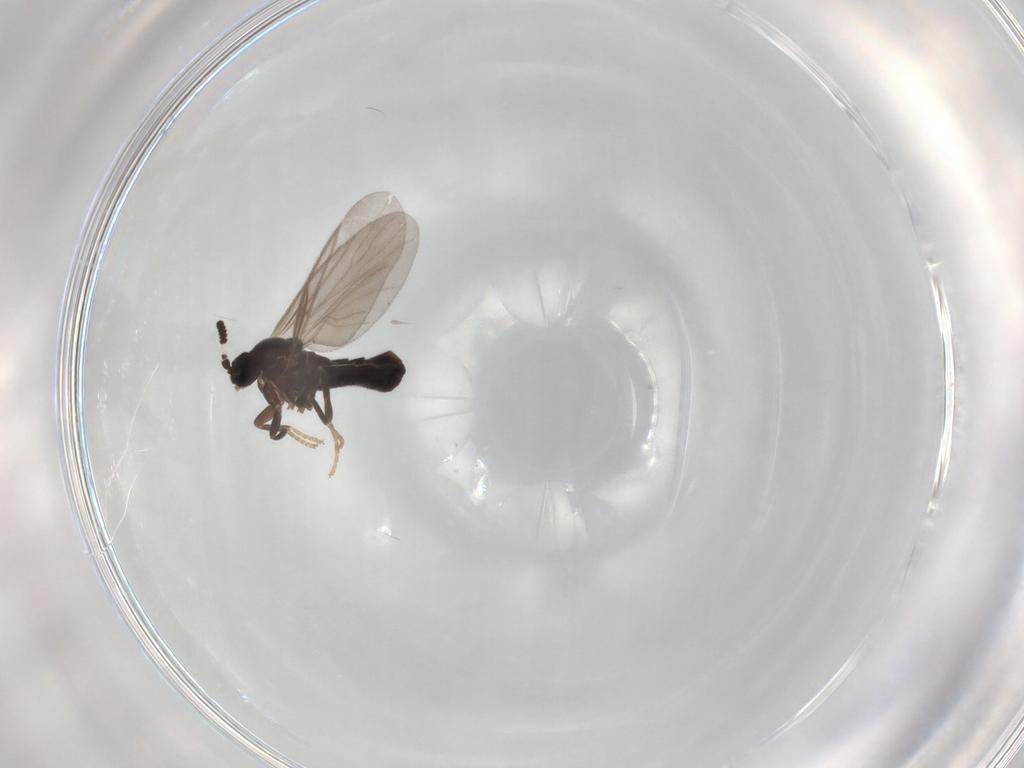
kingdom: Animalia
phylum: Arthropoda
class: Insecta
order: Diptera
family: Scatopsidae
